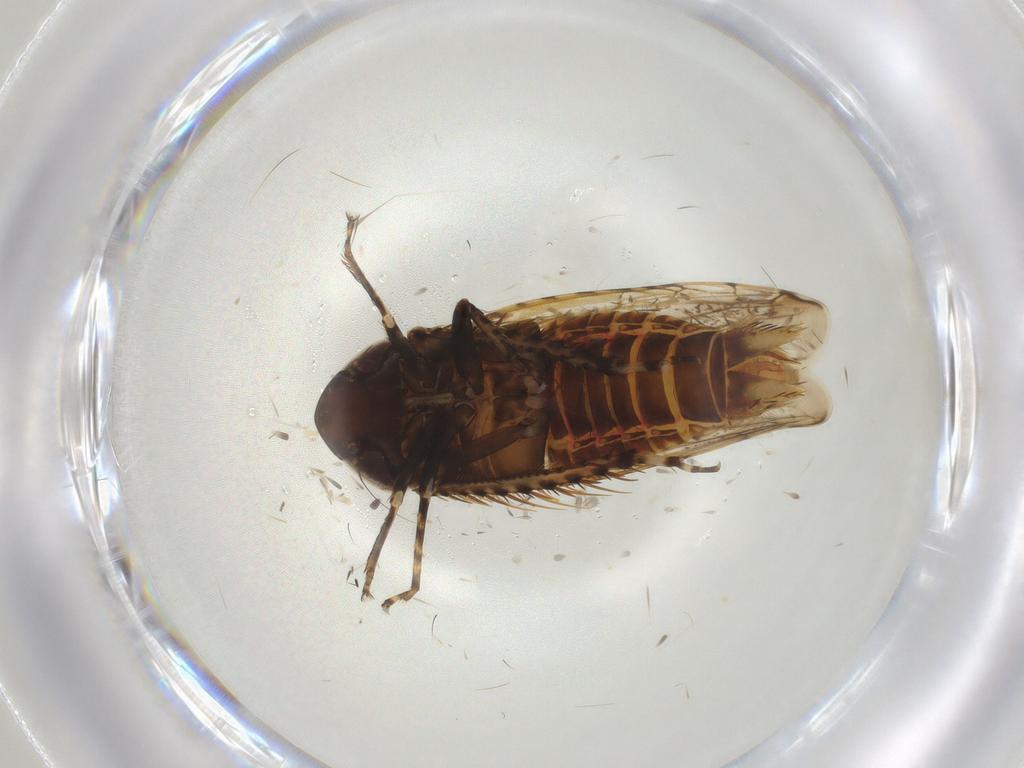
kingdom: Animalia
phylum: Arthropoda
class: Insecta
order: Hemiptera
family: Cicadellidae
